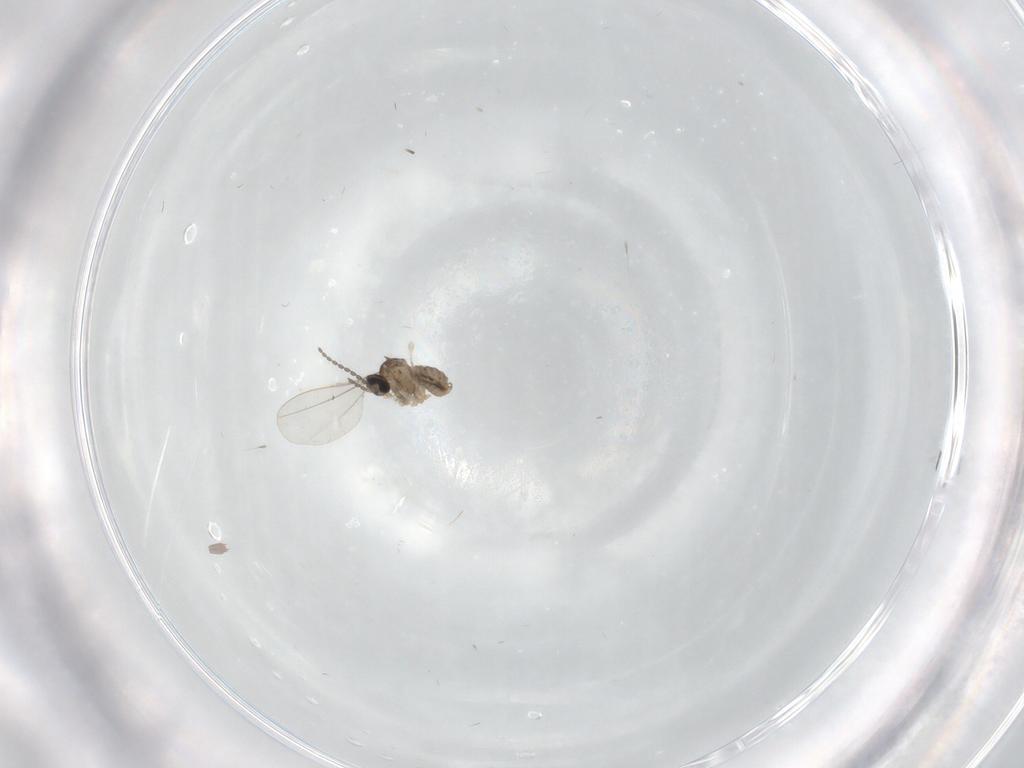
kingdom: Animalia
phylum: Arthropoda
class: Insecta
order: Diptera
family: Cecidomyiidae
